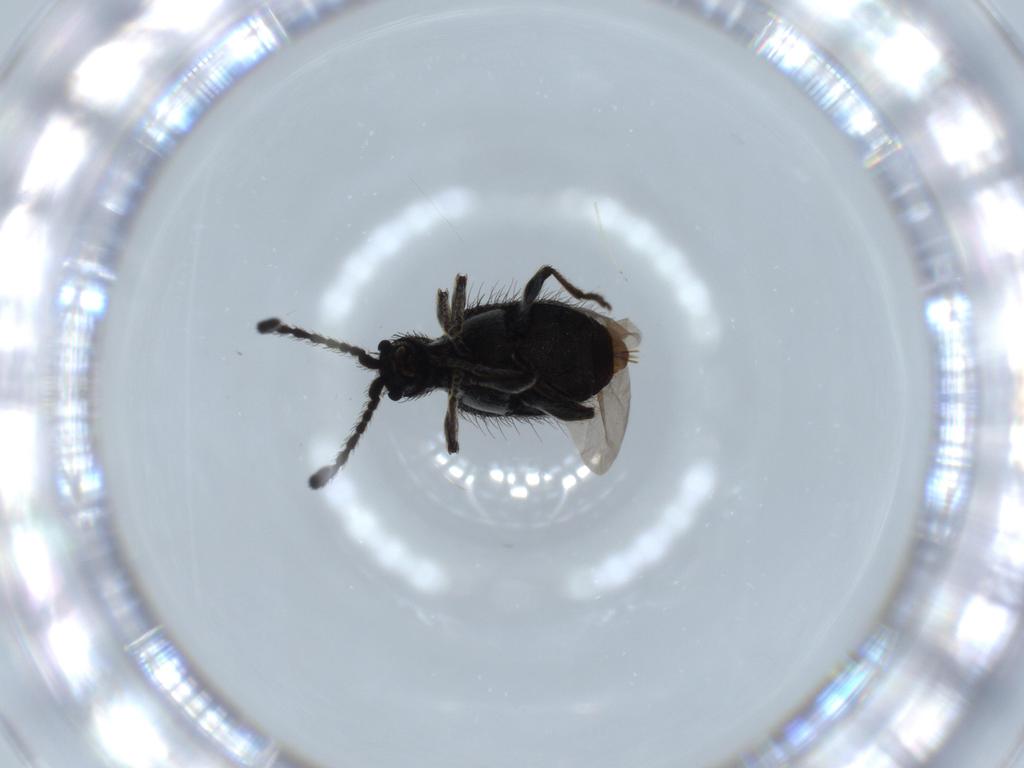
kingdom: Animalia
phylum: Arthropoda
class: Insecta
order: Coleoptera
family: Ptinidae
